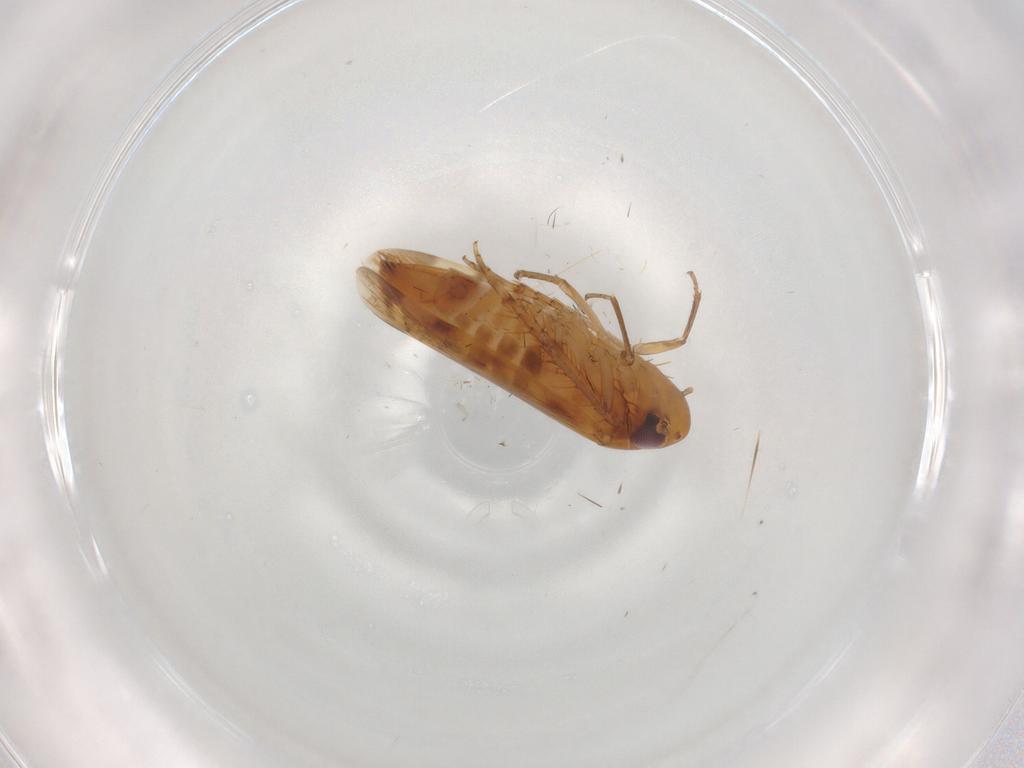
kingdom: Animalia
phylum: Arthropoda
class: Insecta
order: Hemiptera
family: Cicadellidae
